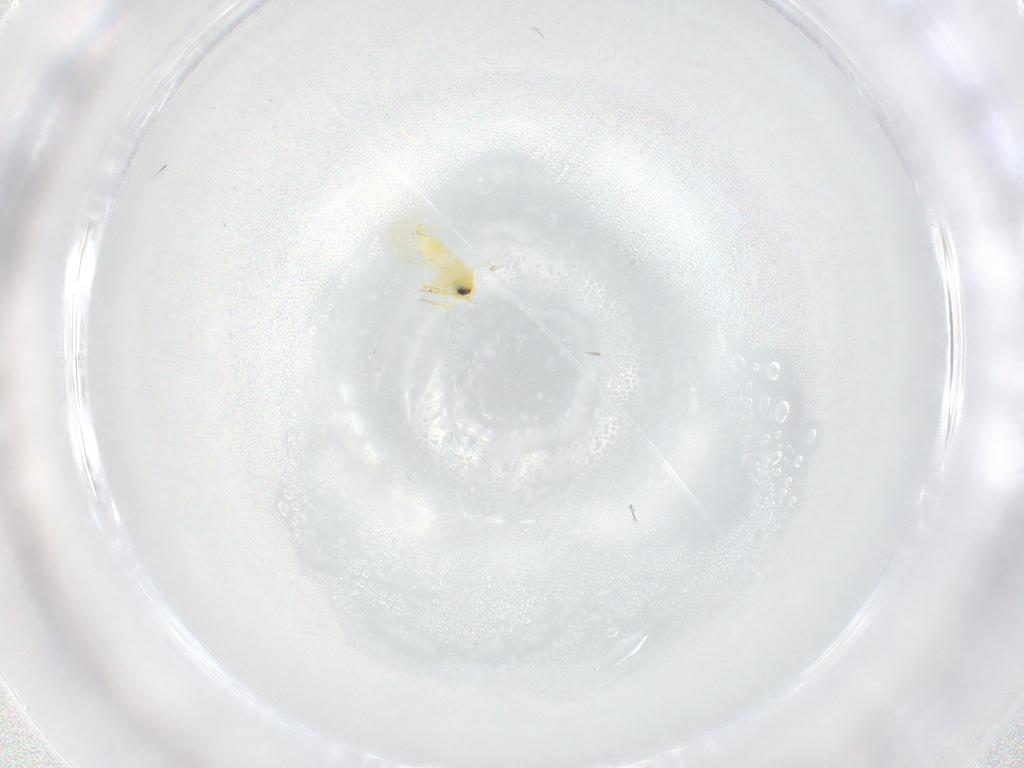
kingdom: Animalia
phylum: Arthropoda
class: Insecta
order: Hemiptera
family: Aleyrodidae
